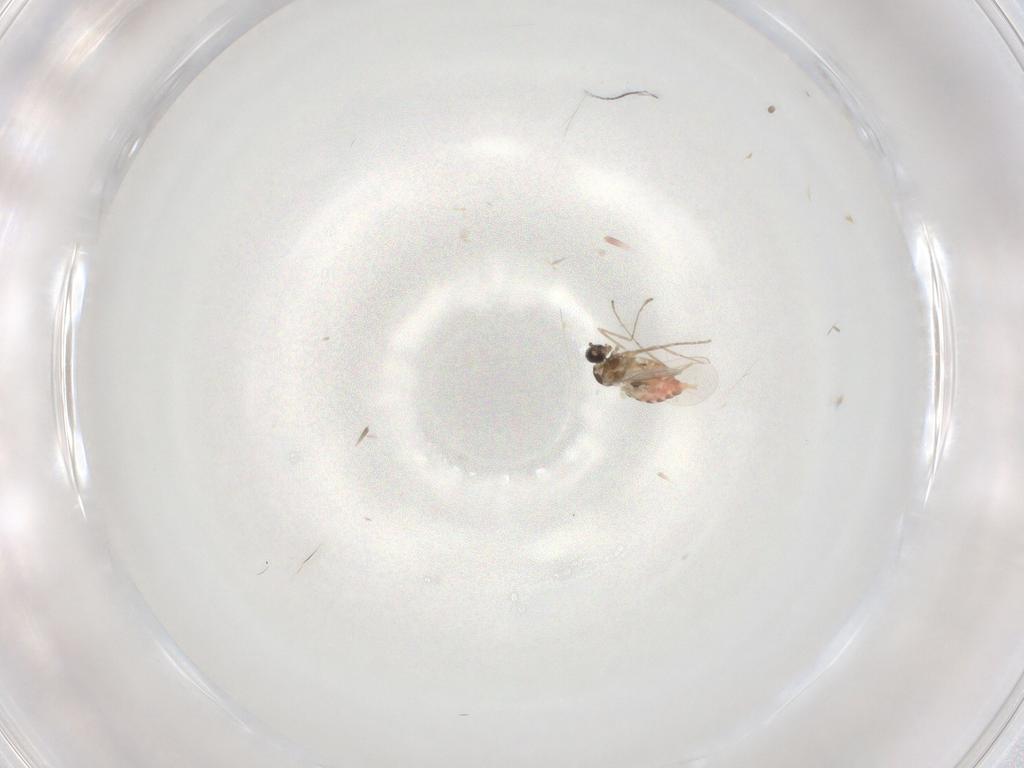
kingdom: Animalia
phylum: Arthropoda
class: Insecta
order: Diptera
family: Cecidomyiidae
